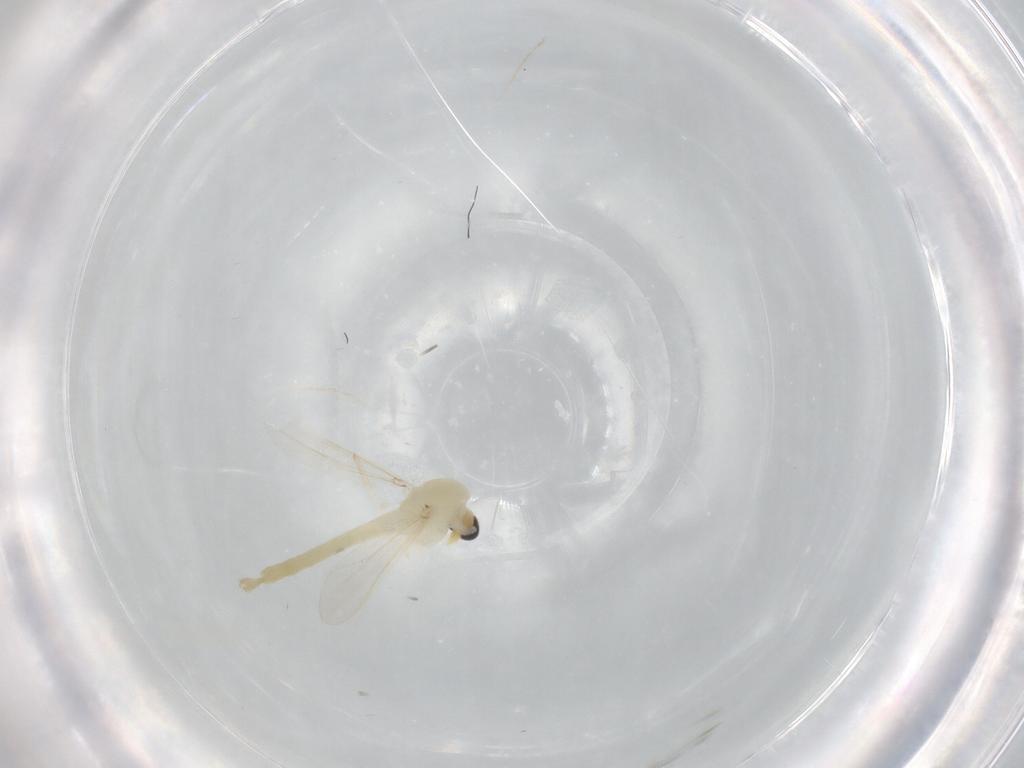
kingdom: Animalia
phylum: Arthropoda
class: Insecta
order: Diptera
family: Chironomidae
